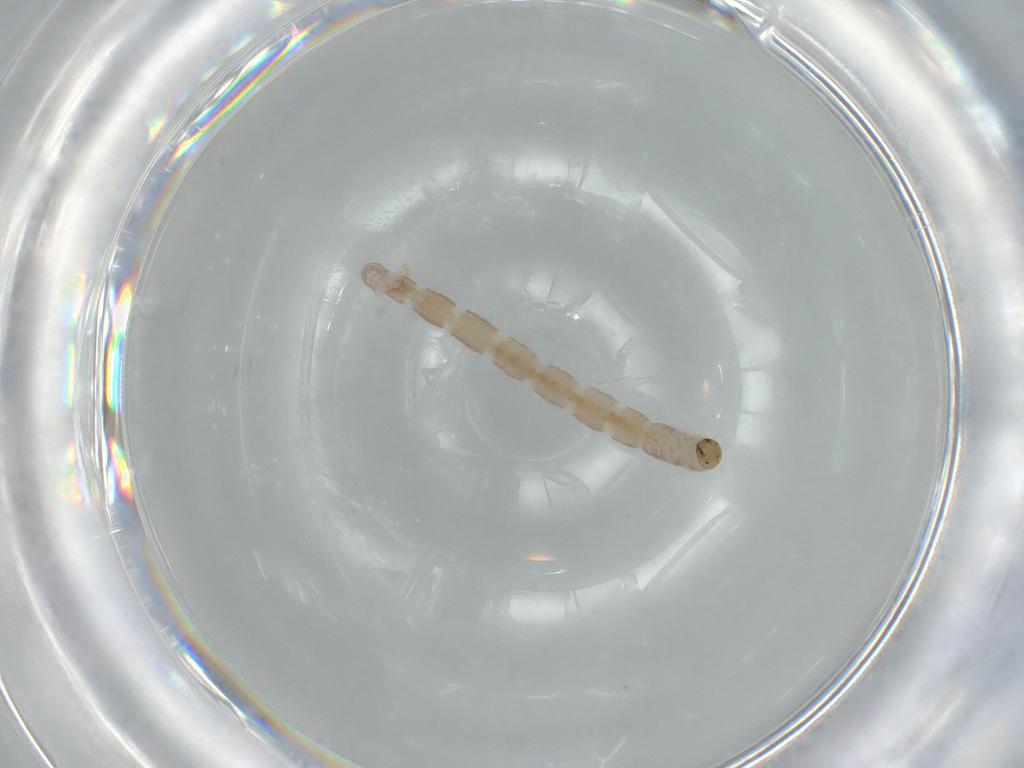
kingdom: Animalia
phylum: Arthropoda
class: Insecta
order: Diptera
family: Chironomidae
